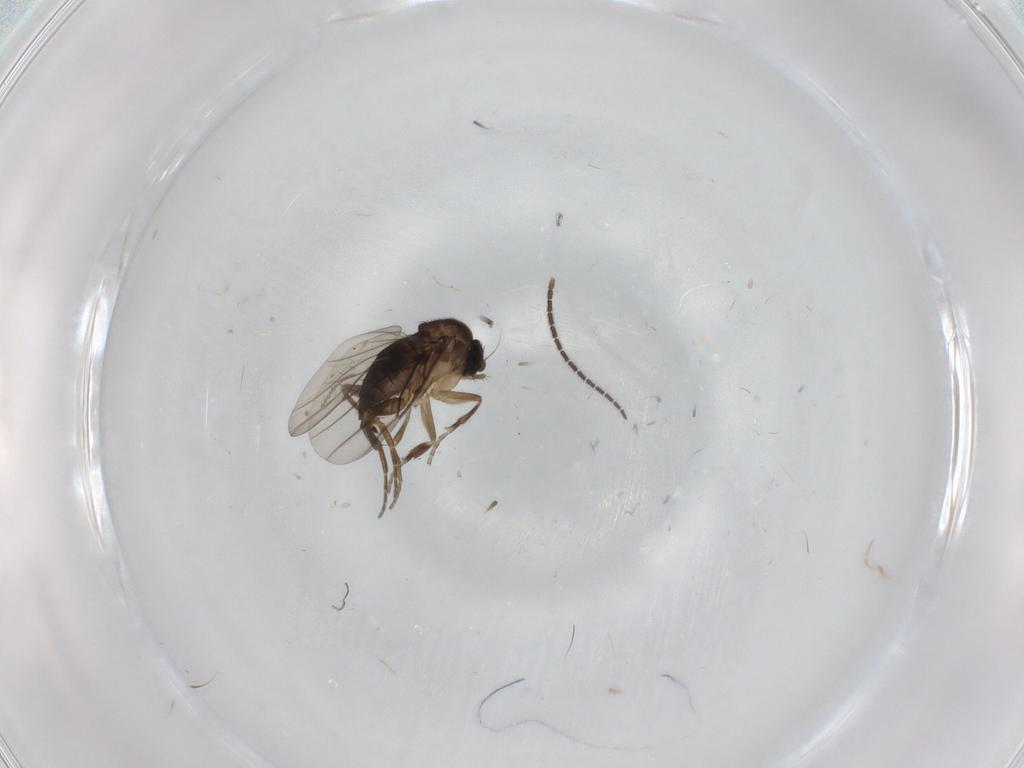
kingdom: Animalia
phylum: Arthropoda
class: Insecta
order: Diptera
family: Phoridae
